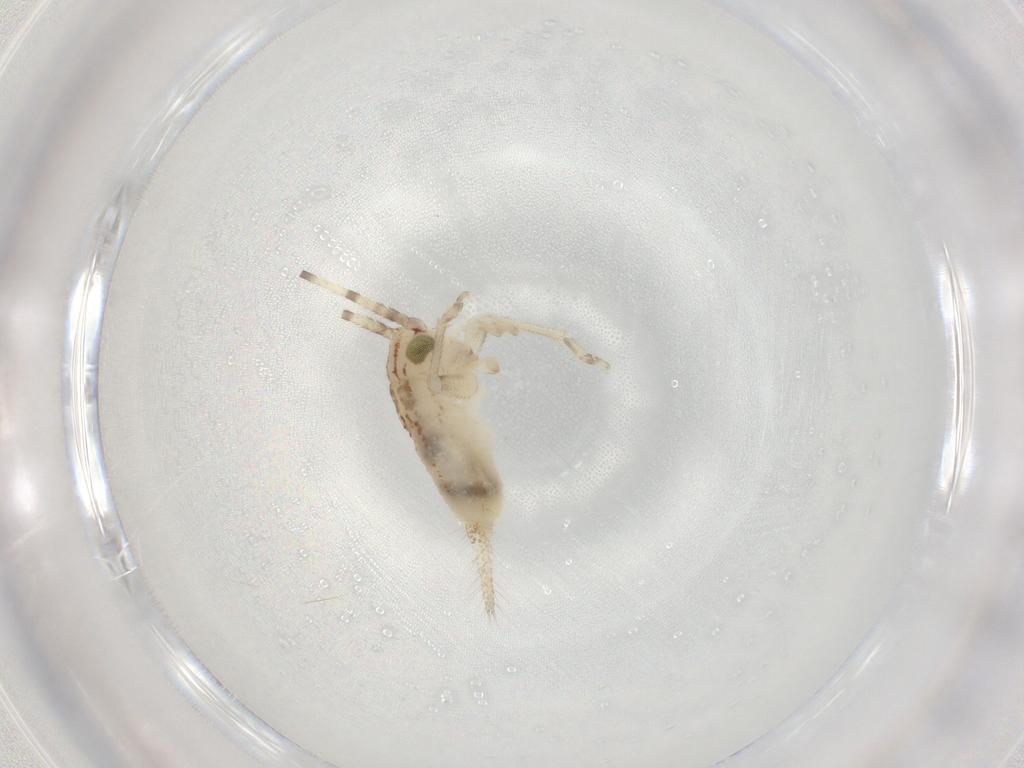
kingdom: Animalia
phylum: Arthropoda
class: Insecta
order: Orthoptera
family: Trigonidiidae
